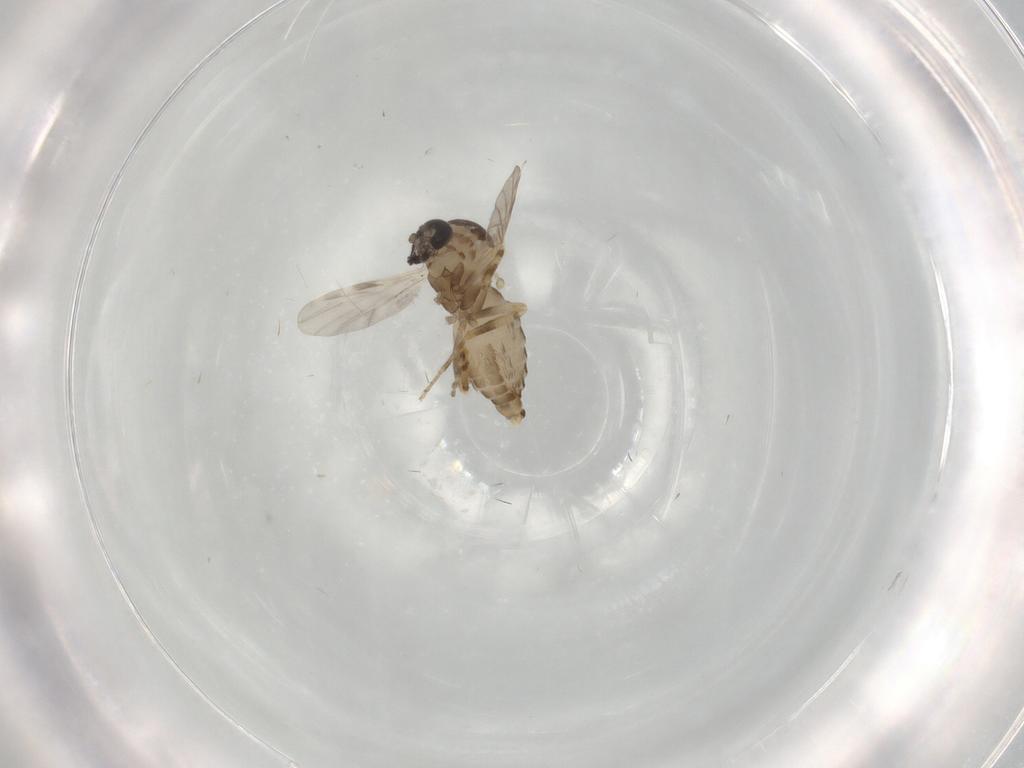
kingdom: Animalia
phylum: Arthropoda
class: Insecta
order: Diptera
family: Ceratopogonidae
